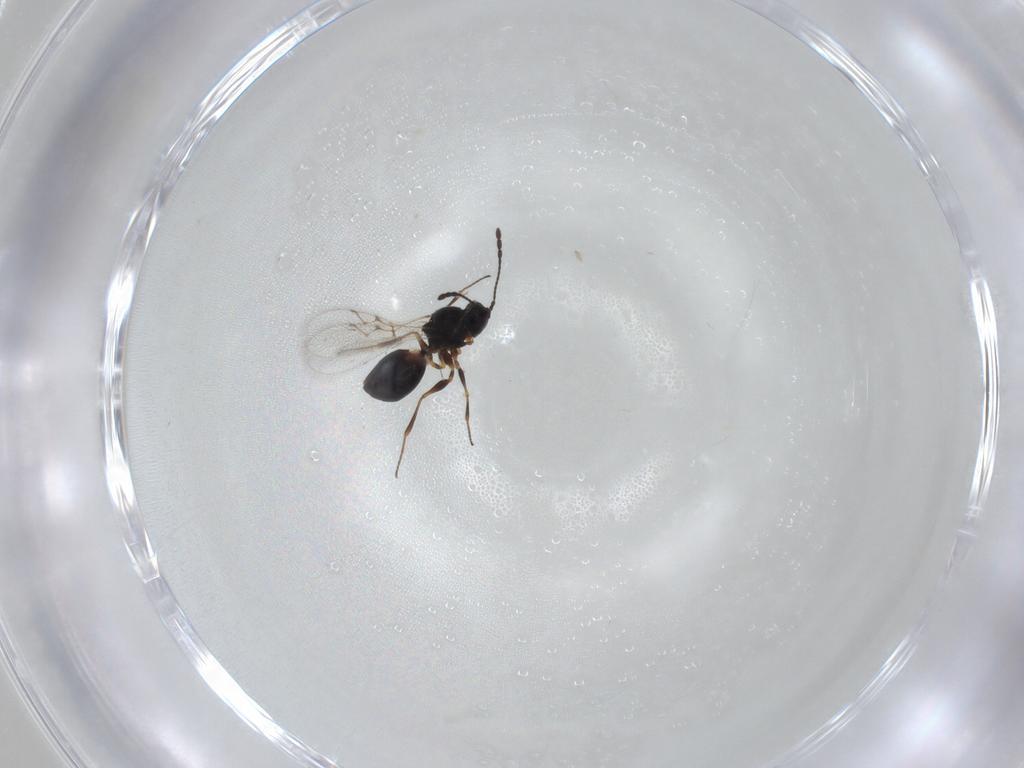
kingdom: Animalia
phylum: Arthropoda
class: Insecta
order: Hymenoptera
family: Figitidae
